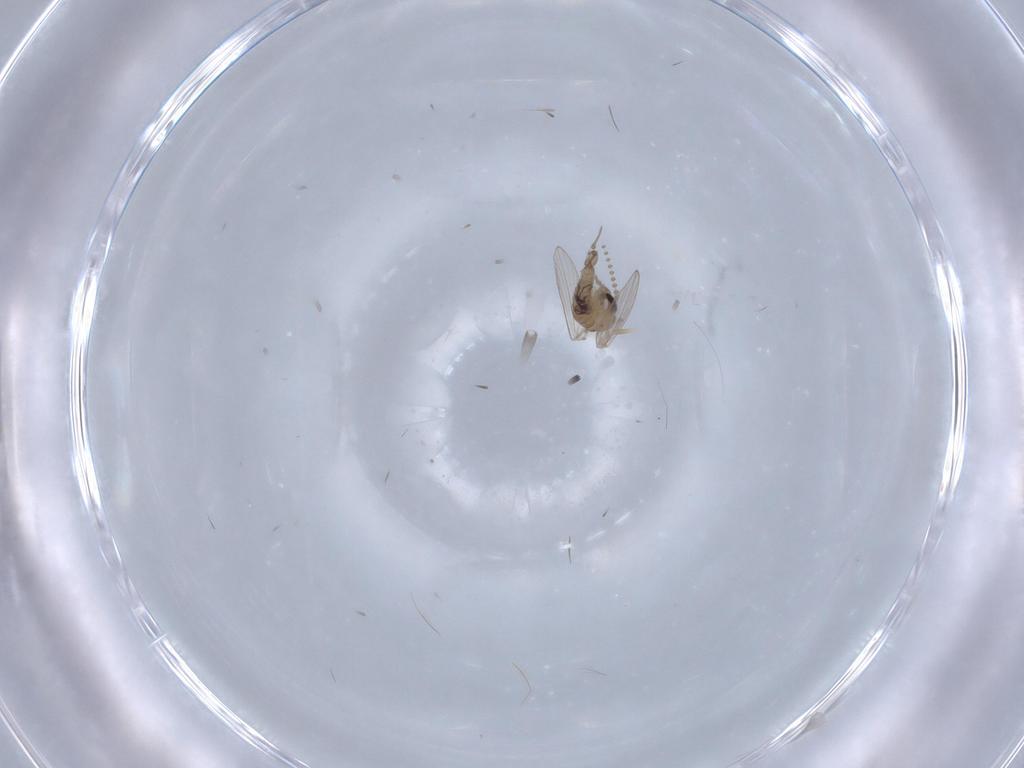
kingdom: Animalia
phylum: Arthropoda
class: Insecta
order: Diptera
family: Psychodidae
